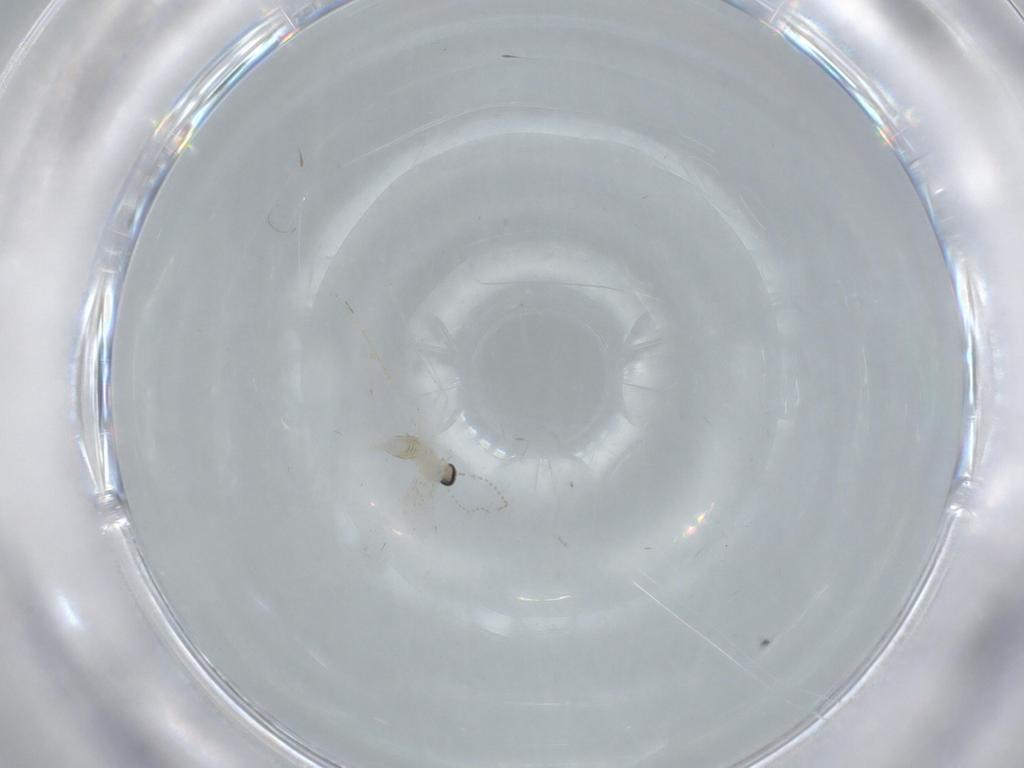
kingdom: Animalia
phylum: Arthropoda
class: Insecta
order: Diptera
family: Cecidomyiidae
